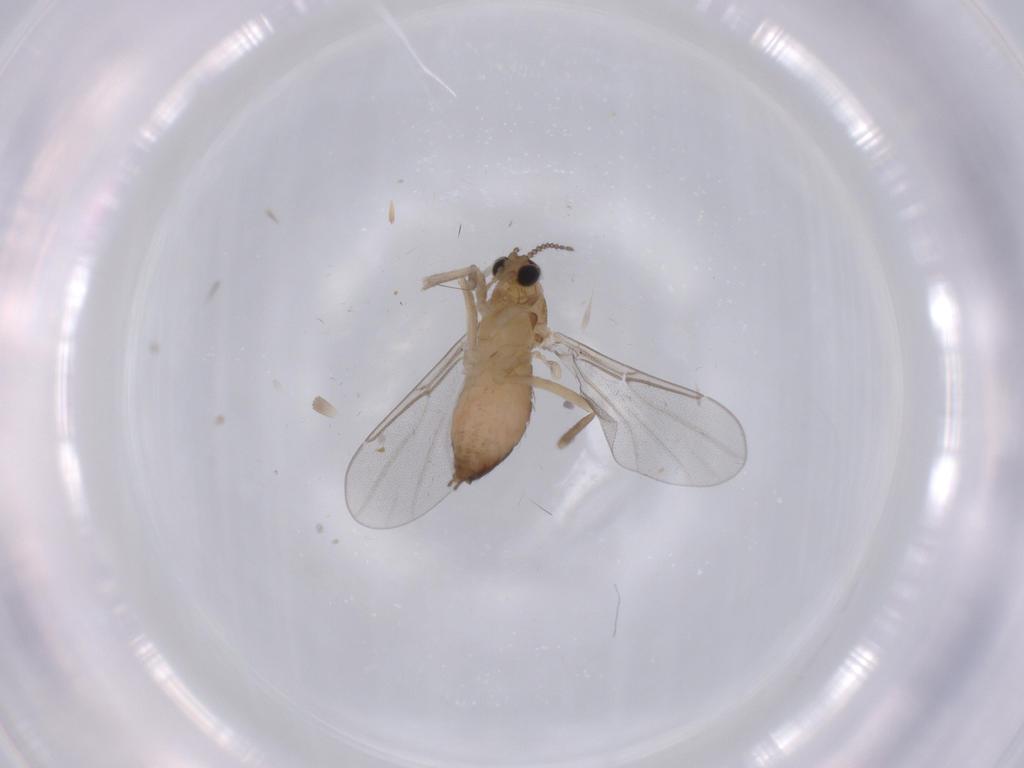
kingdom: Animalia
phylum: Arthropoda
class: Insecta
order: Diptera
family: Cecidomyiidae
